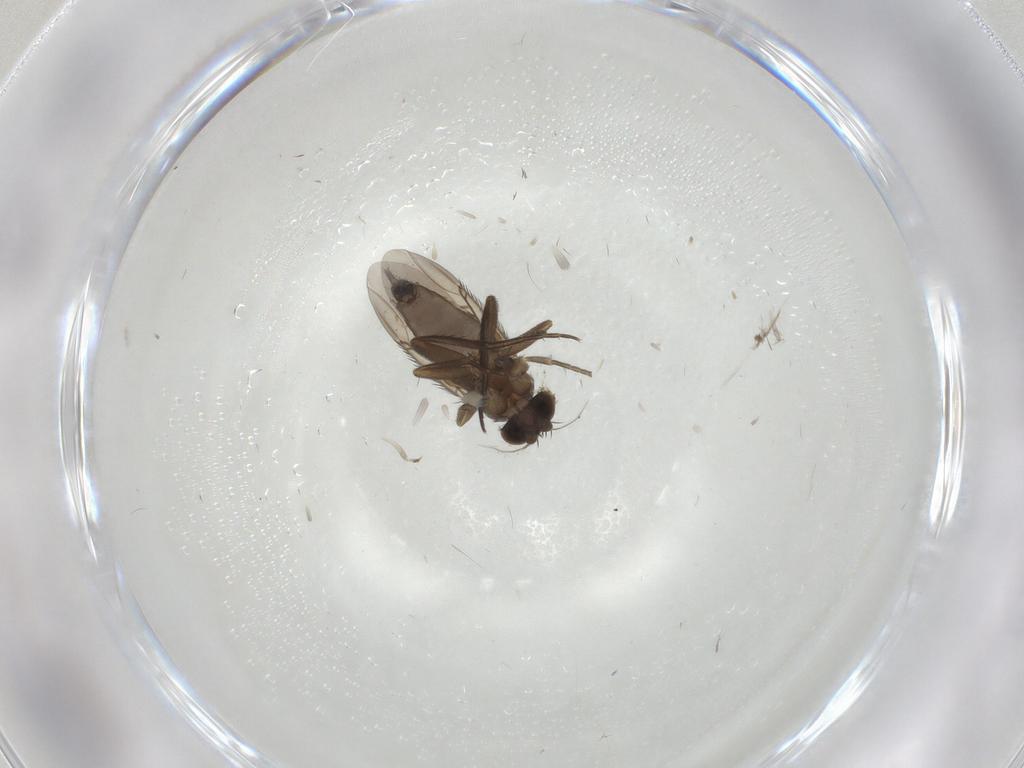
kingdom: Animalia
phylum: Arthropoda
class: Insecta
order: Diptera
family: Phoridae
